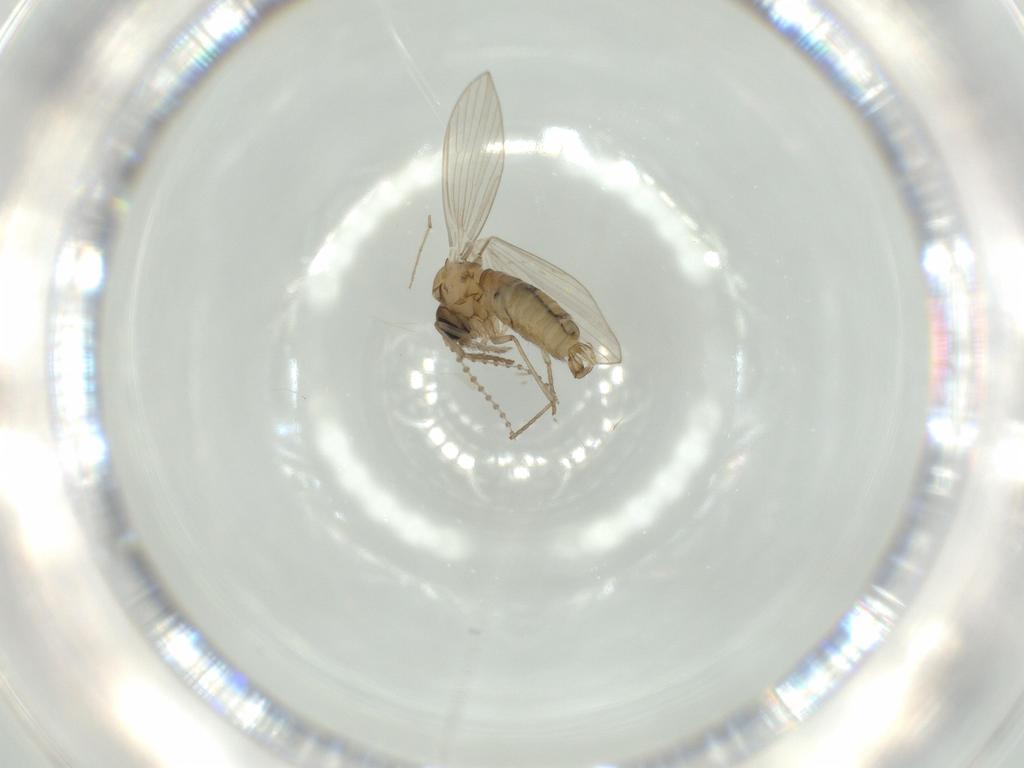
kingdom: Animalia
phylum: Arthropoda
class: Insecta
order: Diptera
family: Psychodidae
